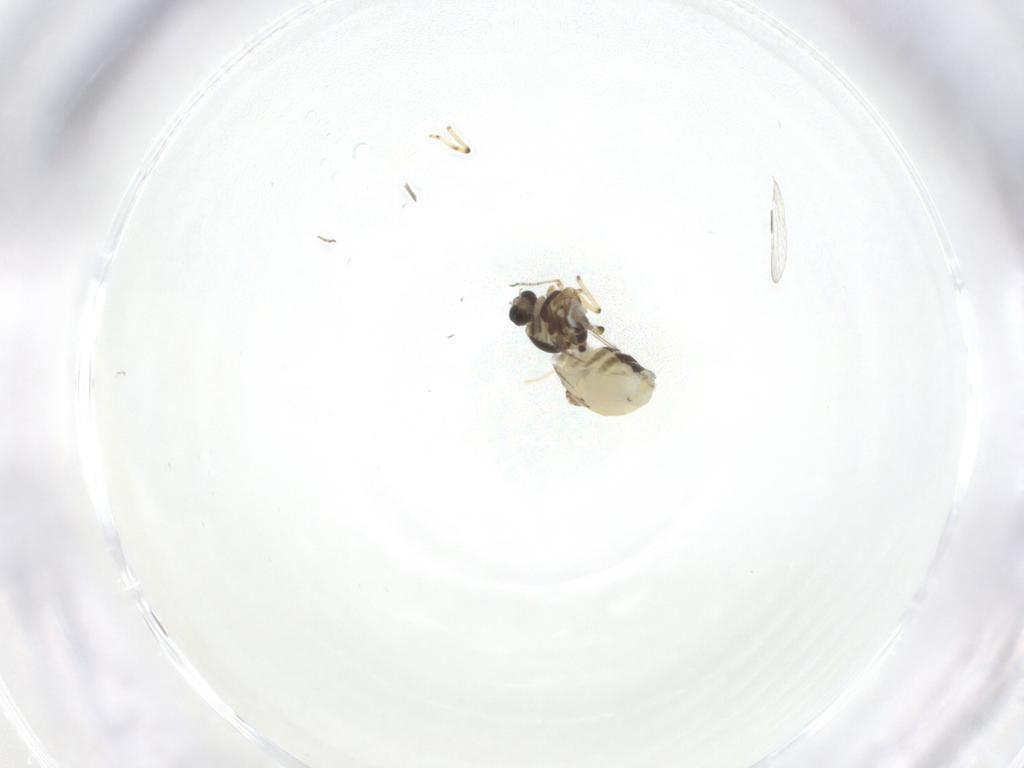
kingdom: Animalia
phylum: Arthropoda
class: Insecta
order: Diptera
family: Ceratopogonidae
